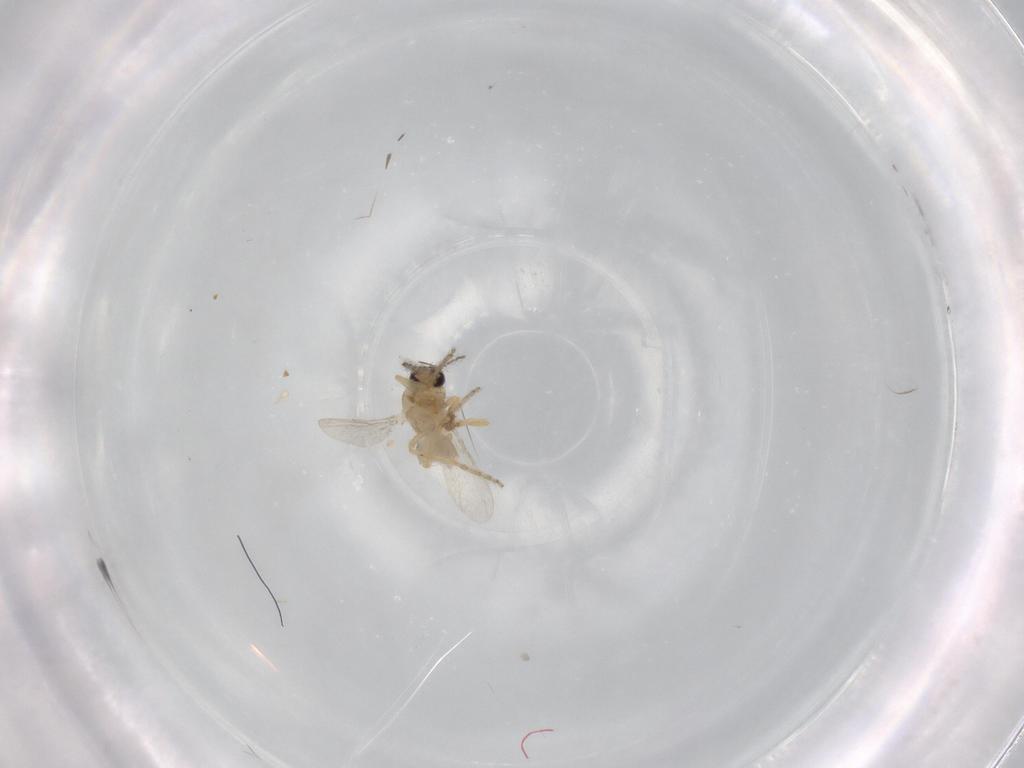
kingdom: Animalia
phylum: Arthropoda
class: Insecta
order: Diptera
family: Ceratopogonidae
